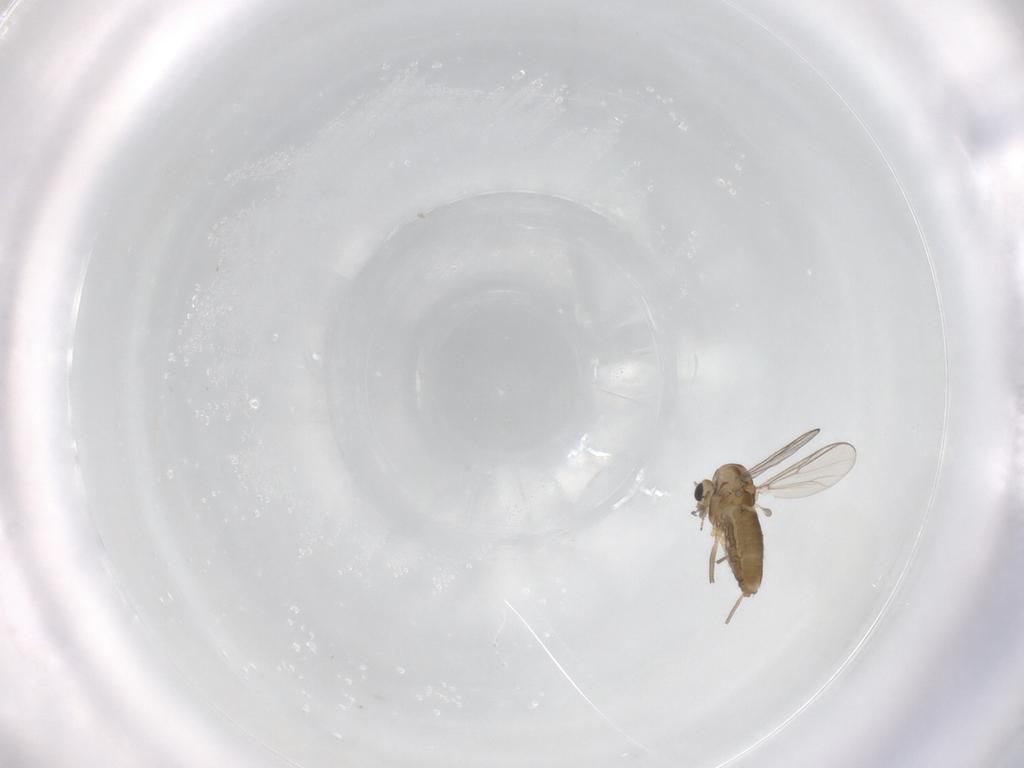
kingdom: Animalia
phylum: Arthropoda
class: Insecta
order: Diptera
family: Chironomidae
